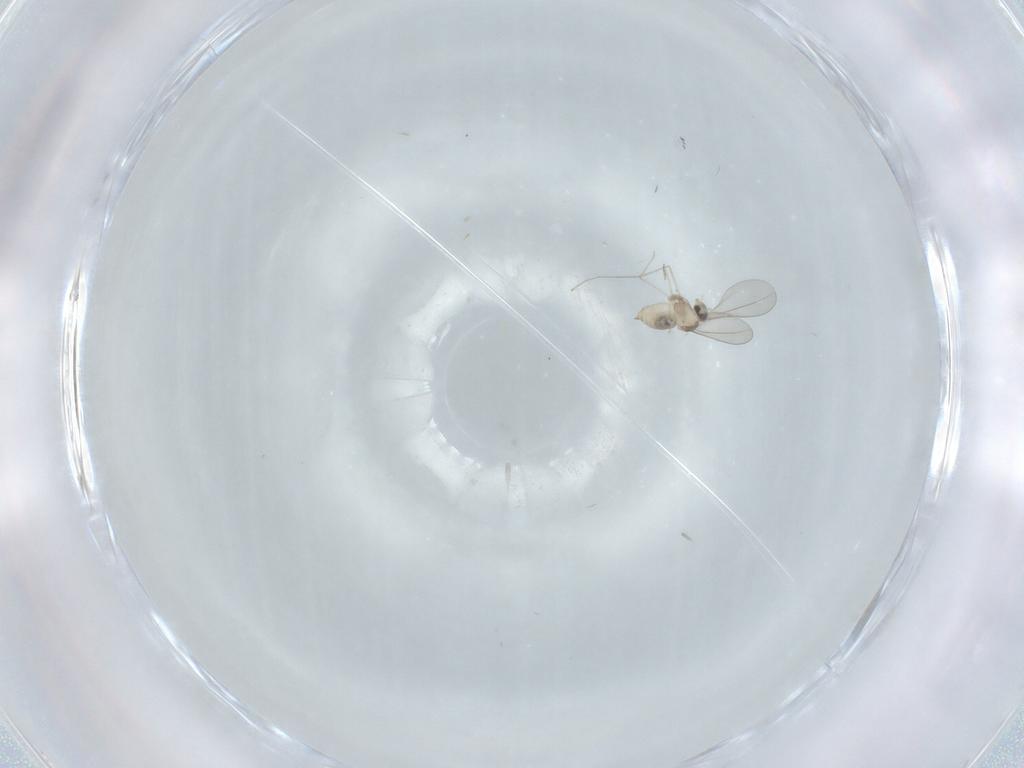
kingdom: Animalia
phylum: Arthropoda
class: Insecta
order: Diptera
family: Sphaeroceridae
